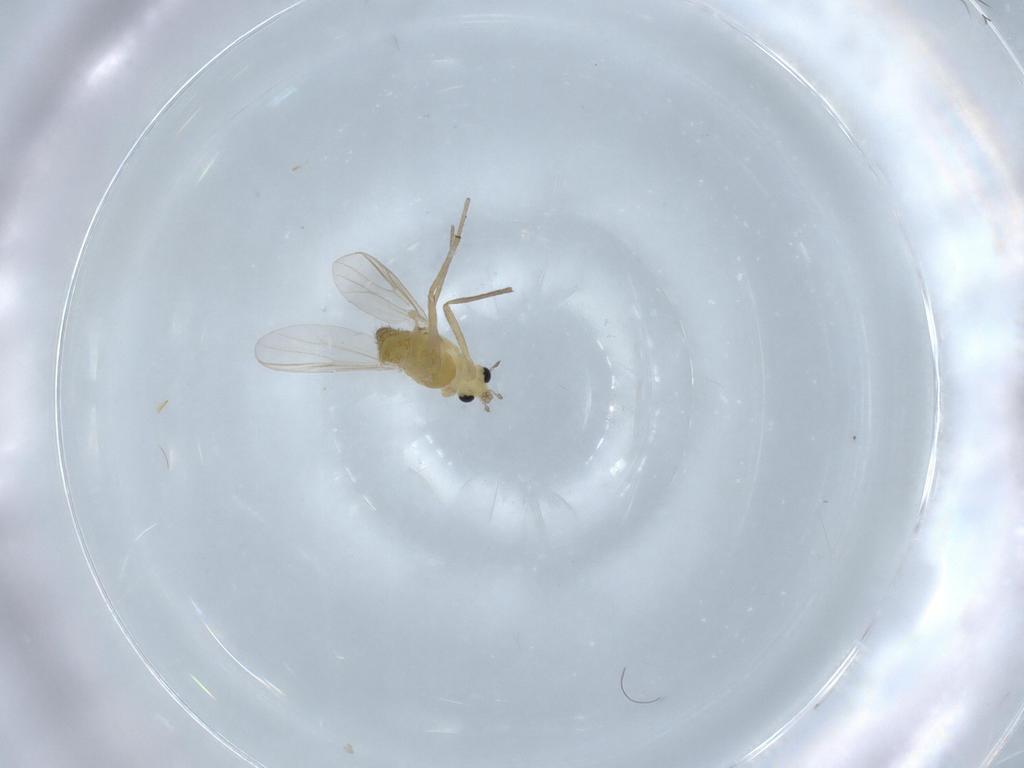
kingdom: Animalia
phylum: Arthropoda
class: Insecta
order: Diptera
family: Chironomidae
